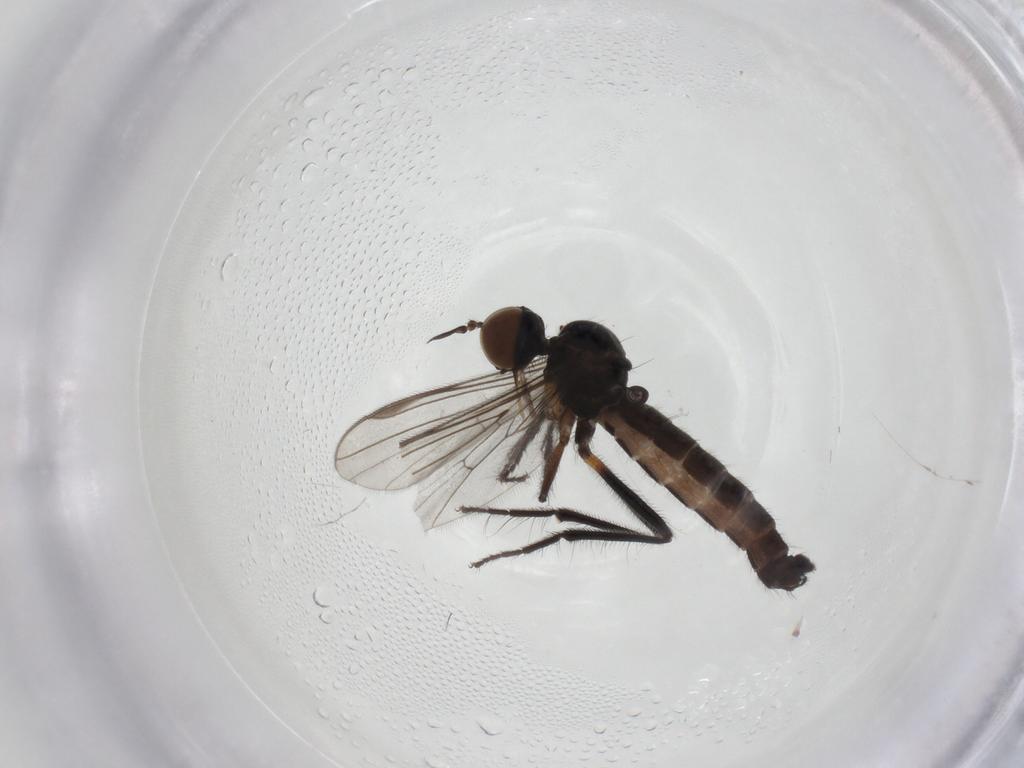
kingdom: Animalia
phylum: Arthropoda
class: Insecta
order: Diptera
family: Empididae
